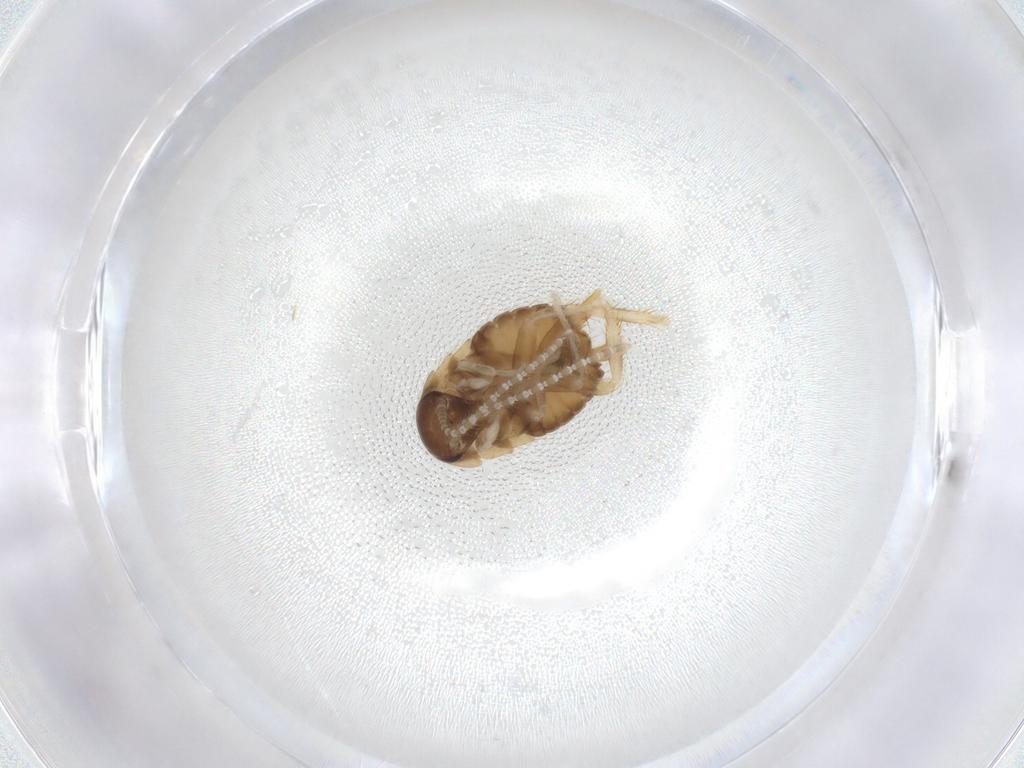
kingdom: Animalia
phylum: Arthropoda
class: Insecta
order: Blattodea
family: Ectobiidae
